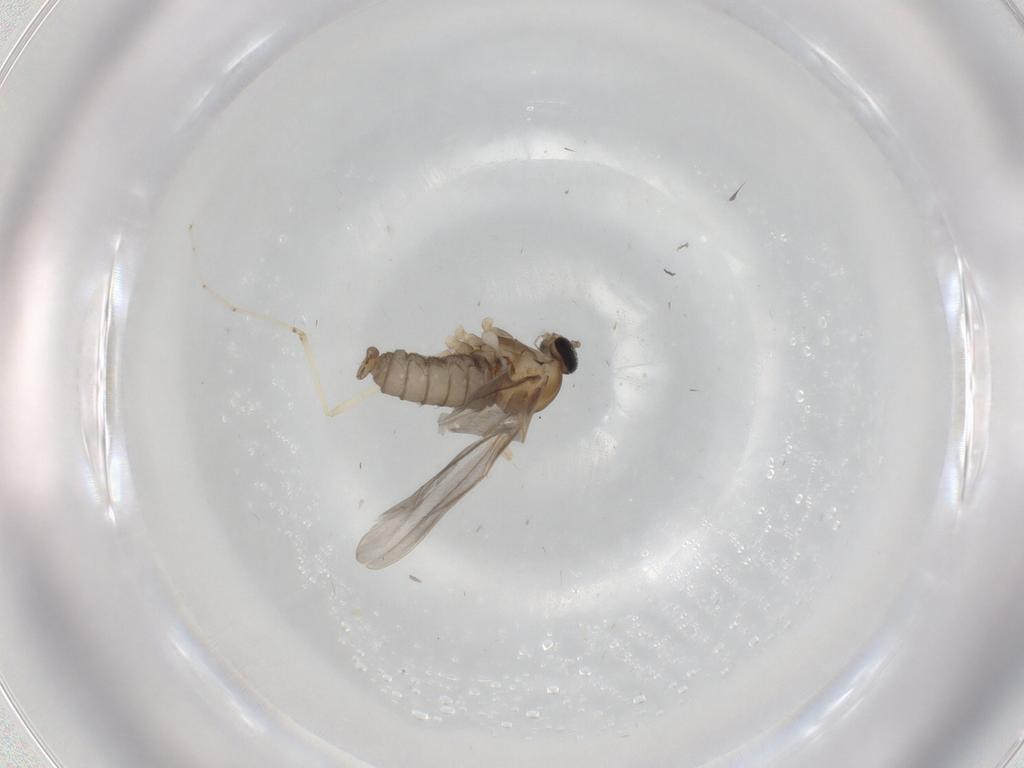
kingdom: Animalia
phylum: Arthropoda
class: Insecta
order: Diptera
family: Cecidomyiidae
